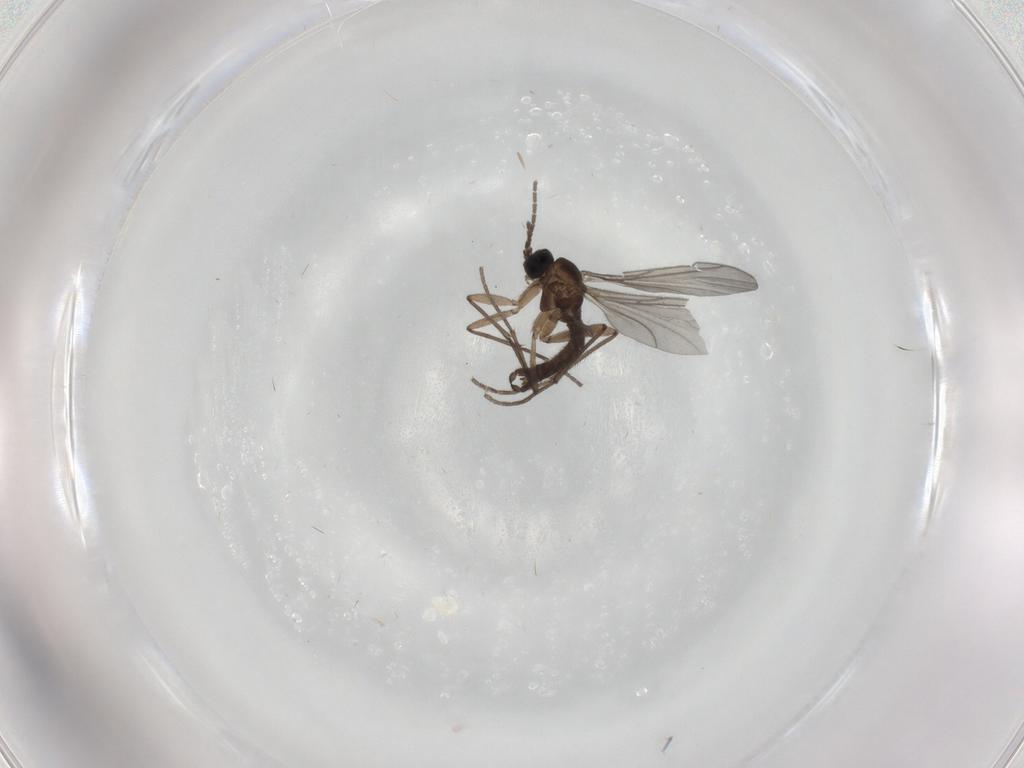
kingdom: Animalia
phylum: Arthropoda
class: Insecta
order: Diptera
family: Sciaridae
